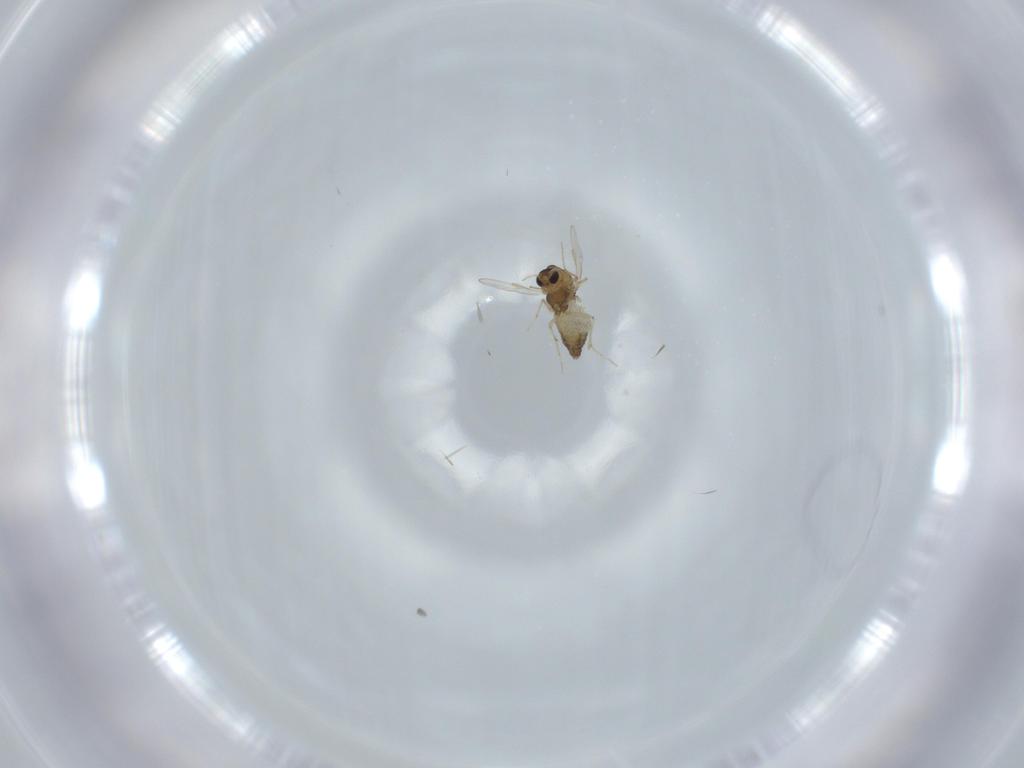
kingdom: Animalia
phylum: Arthropoda
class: Insecta
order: Diptera
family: Chironomidae
